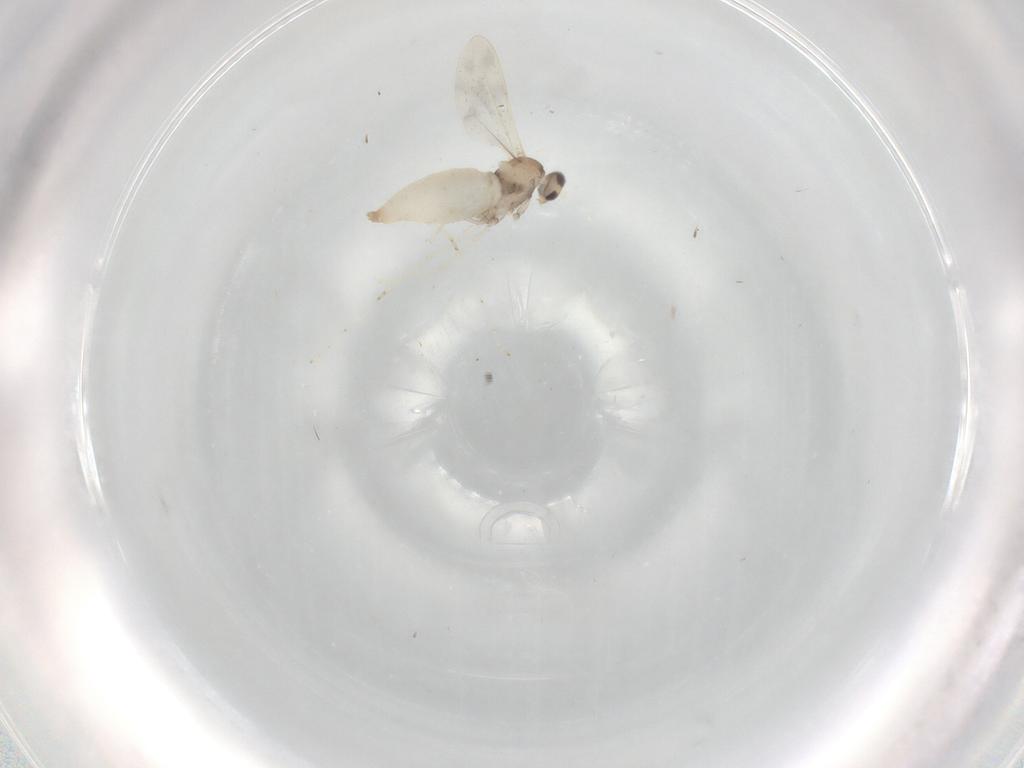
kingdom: Animalia
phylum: Arthropoda
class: Insecta
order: Diptera
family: Cecidomyiidae
